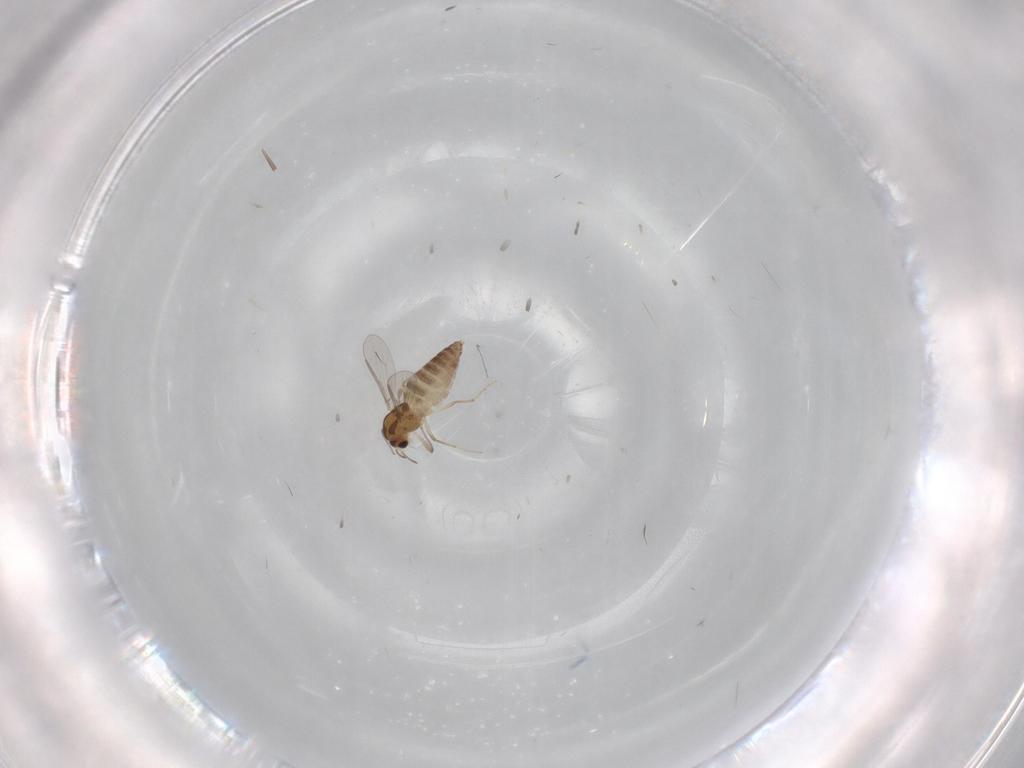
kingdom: Animalia
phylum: Arthropoda
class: Insecta
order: Diptera
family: Chironomidae
